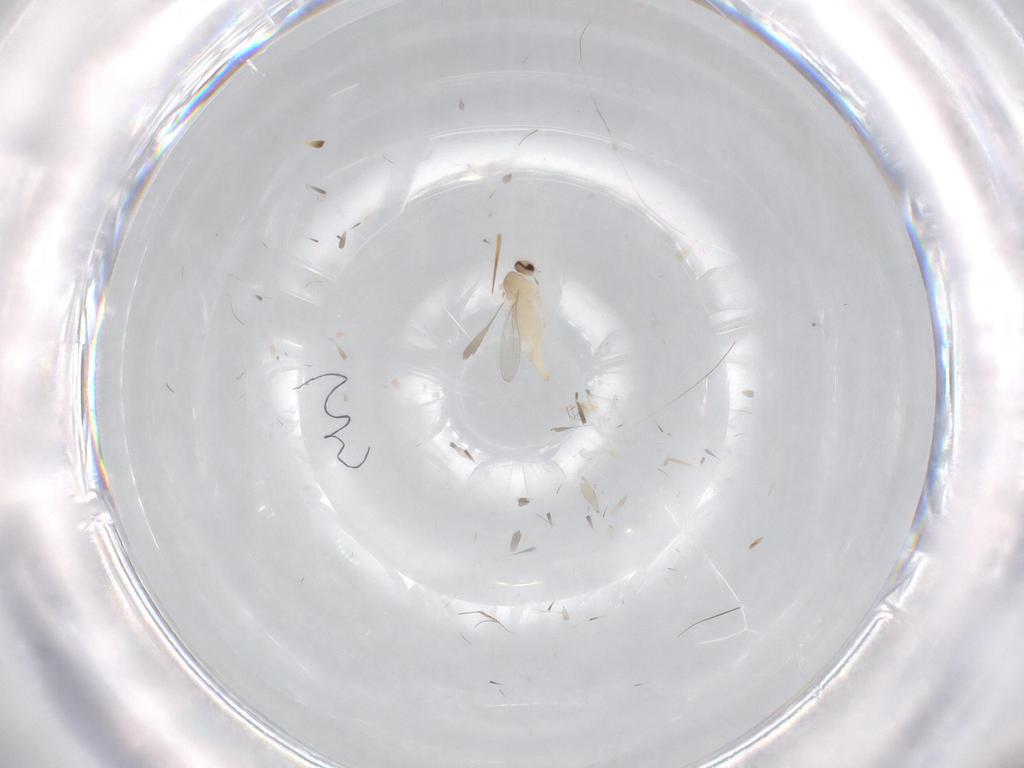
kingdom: Animalia
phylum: Arthropoda
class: Insecta
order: Diptera
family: Cecidomyiidae
